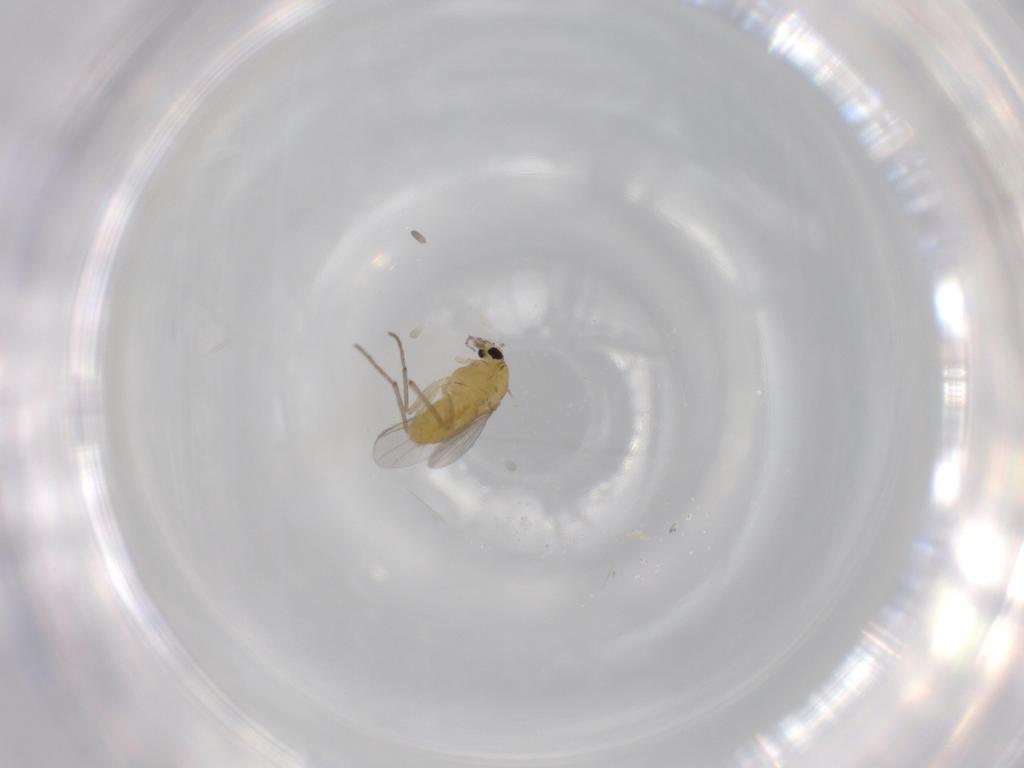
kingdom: Animalia
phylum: Arthropoda
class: Insecta
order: Diptera
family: Chironomidae
